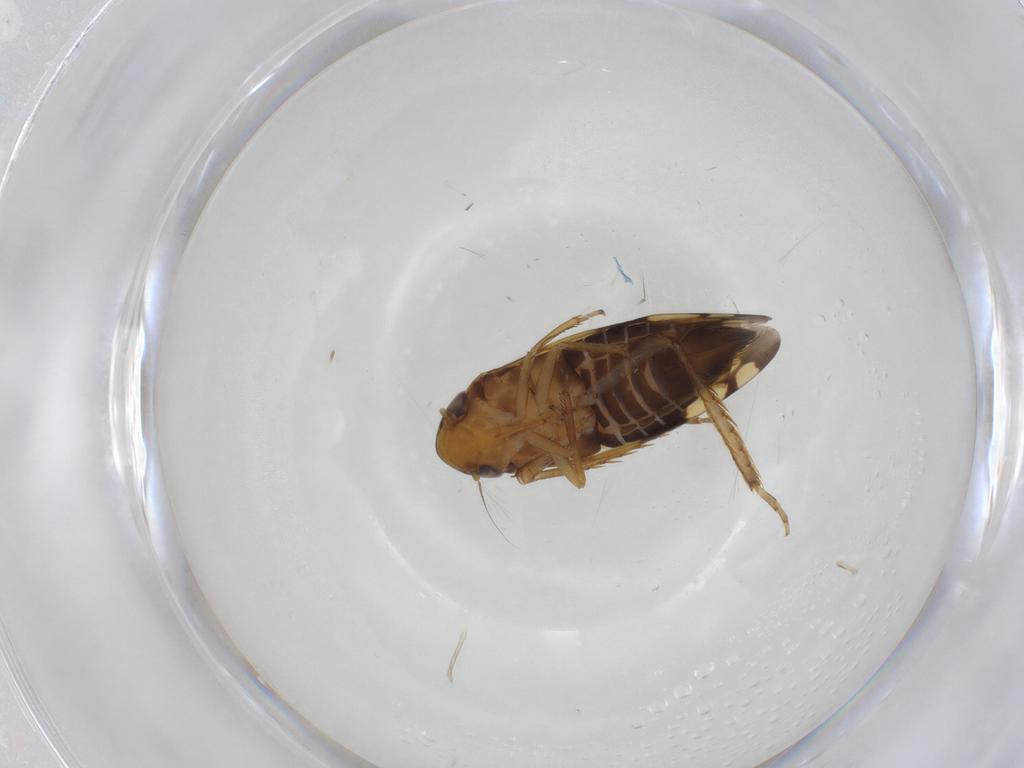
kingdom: Animalia
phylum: Arthropoda
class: Insecta
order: Hemiptera
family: Cicadellidae
